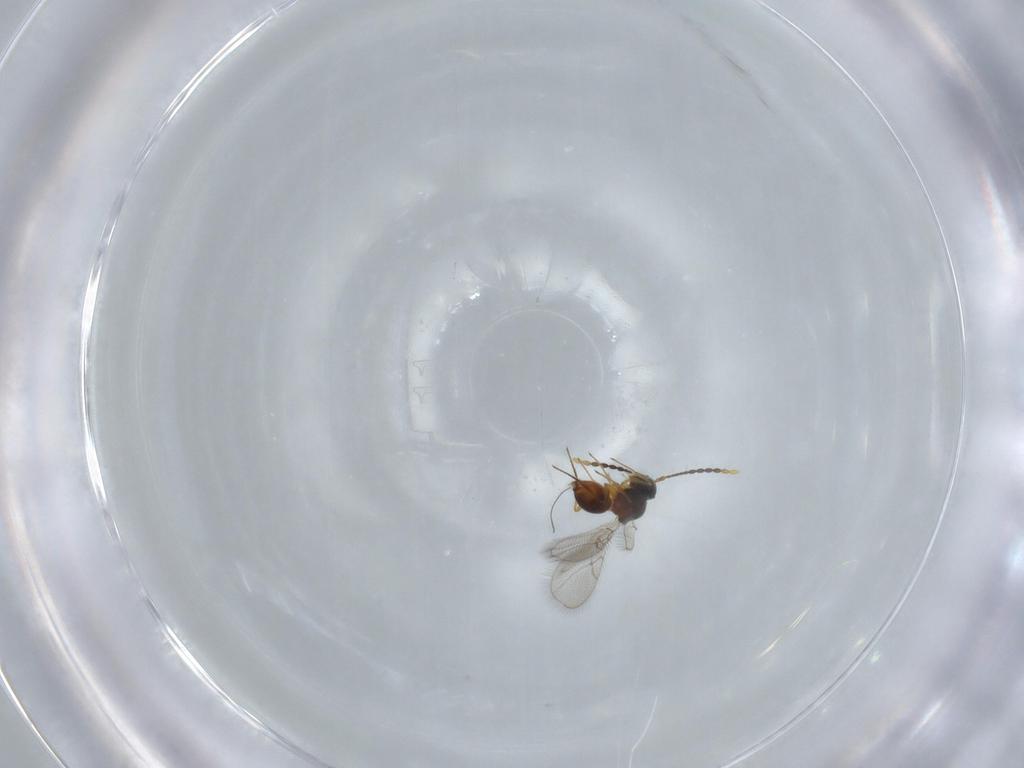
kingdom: Animalia
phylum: Arthropoda
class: Insecta
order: Hymenoptera
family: Figitidae
